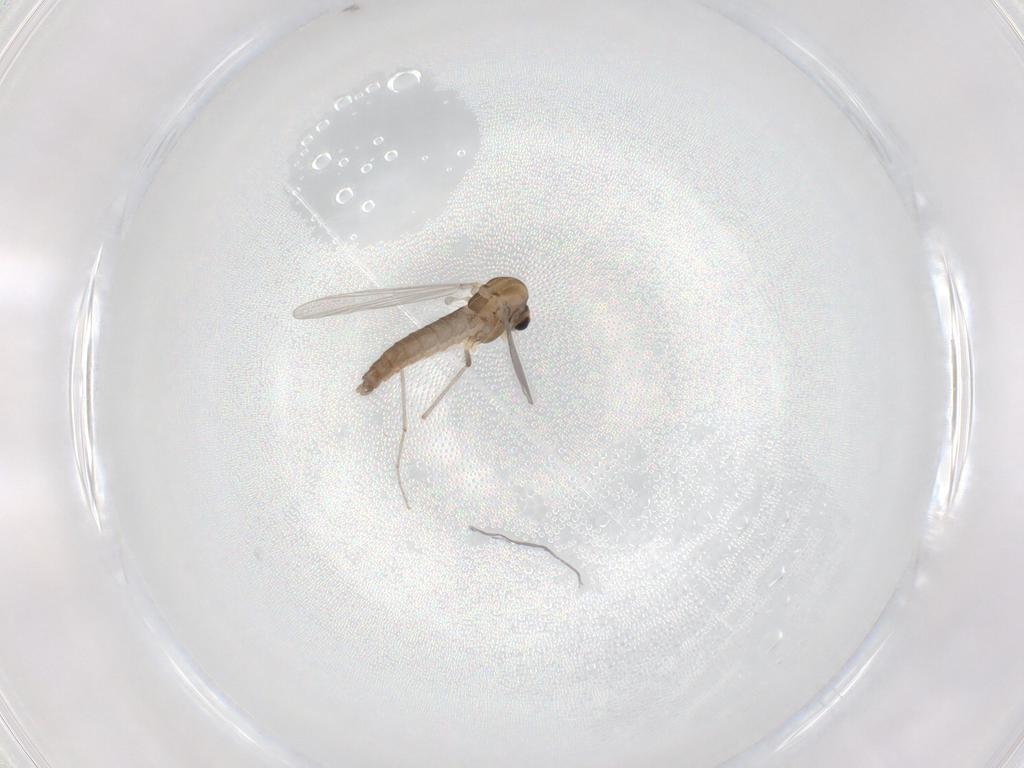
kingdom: Animalia
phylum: Arthropoda
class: Insecta
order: Diptera
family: Chironomidae
